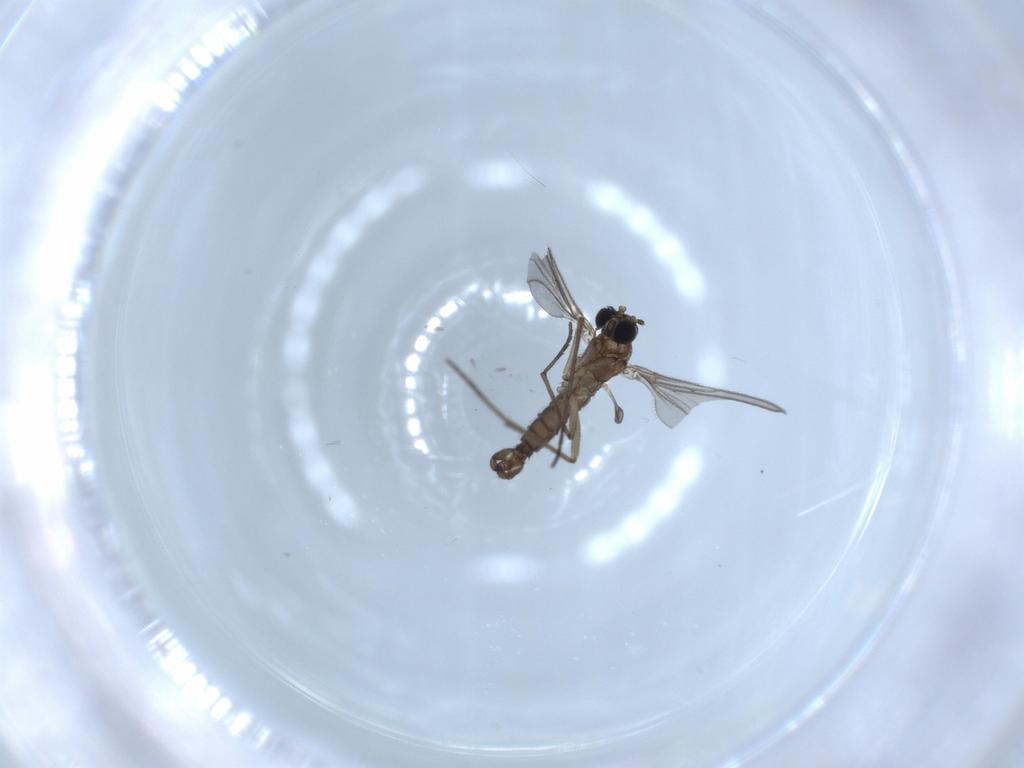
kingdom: Animalia
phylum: Arthropoda
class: Insecta
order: Diptera
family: Sciaridae
